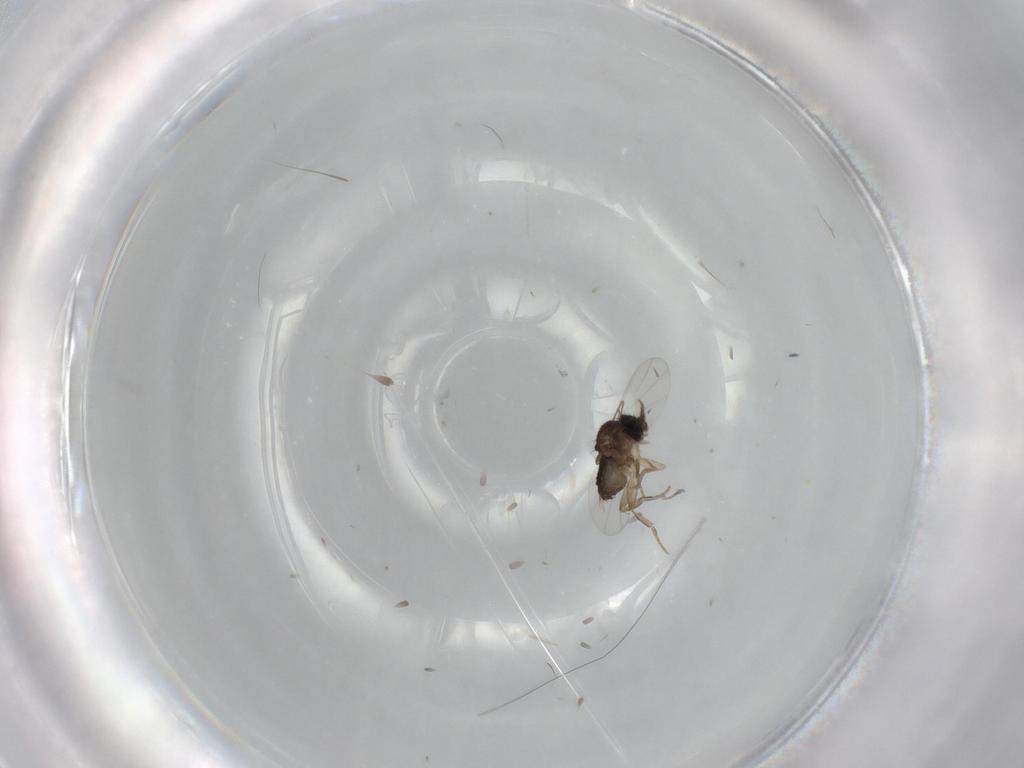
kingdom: Animalia
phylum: Arthropoda
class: Insecta
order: Diptera
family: Phoridae
